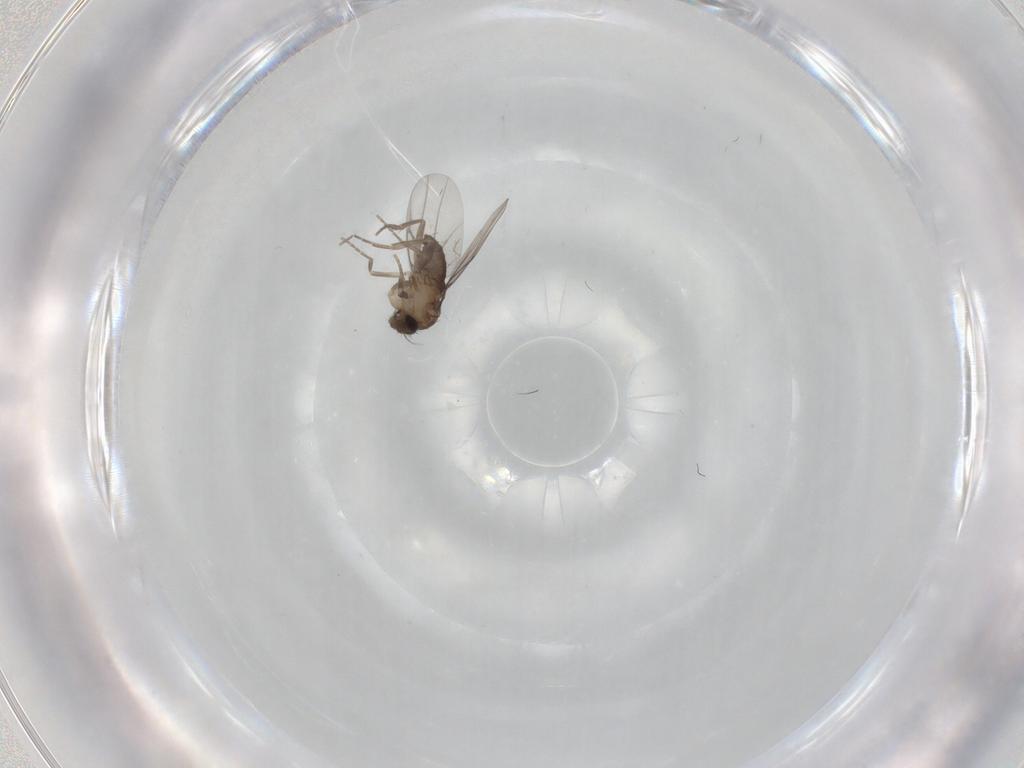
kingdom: Animalia
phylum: Arthropoda
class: Insecta
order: Diptera
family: Phoridae
